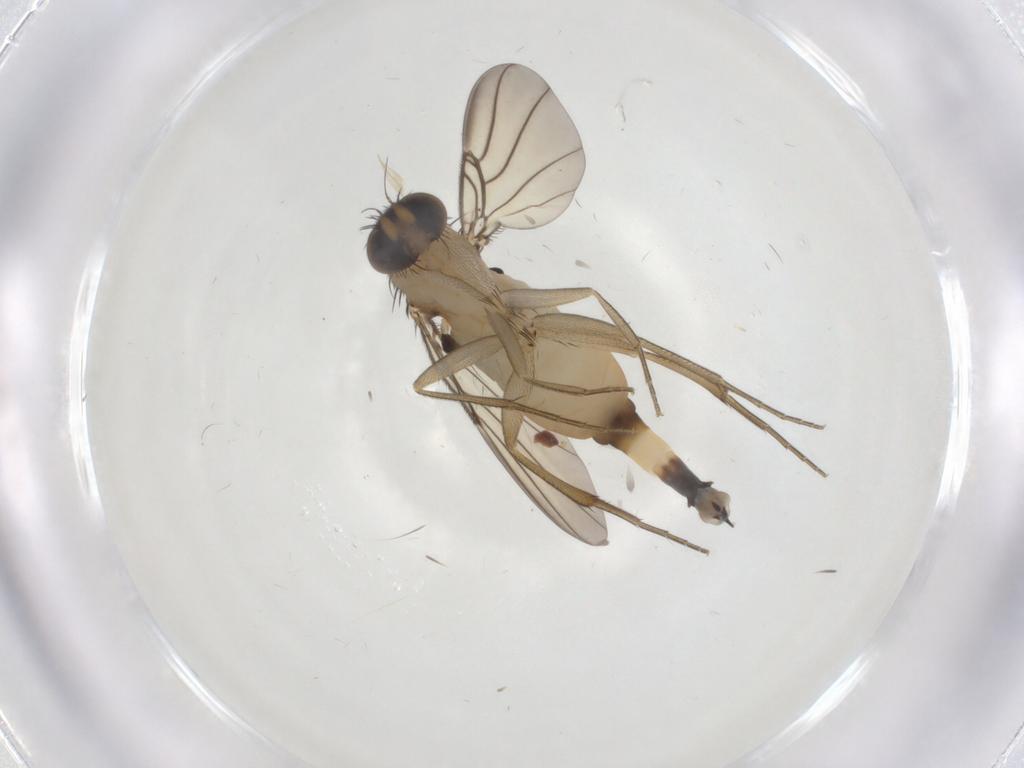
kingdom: Animalia
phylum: Arthropoda
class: Insecta
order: Diptera
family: Phoridae
